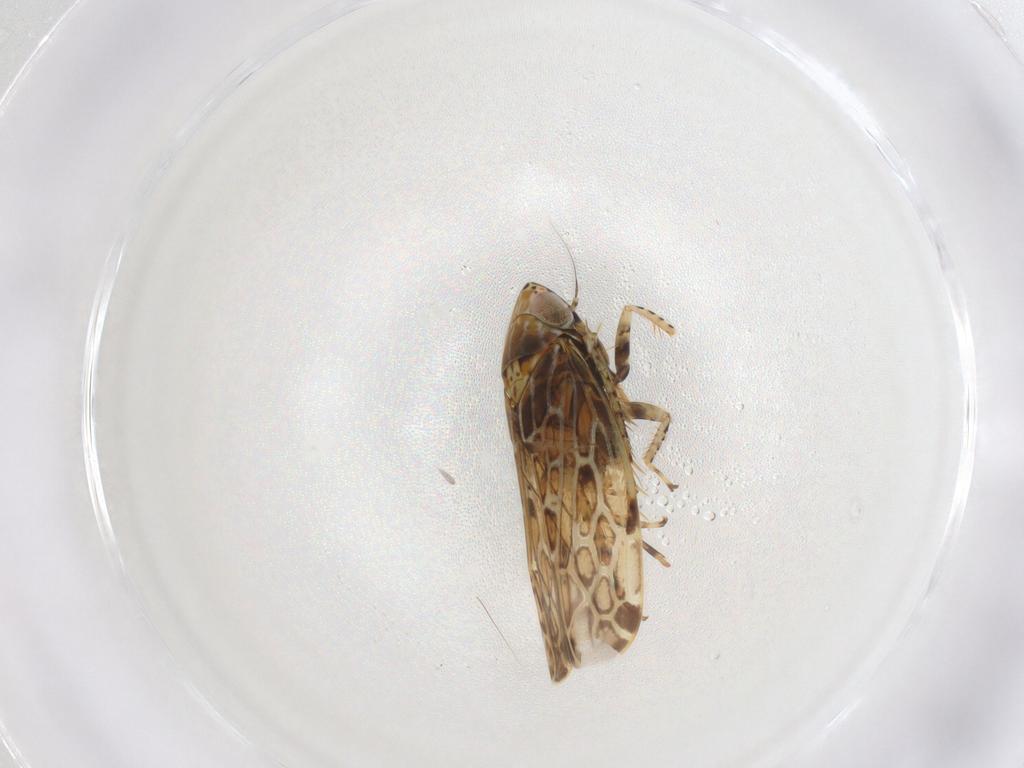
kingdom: Animalia
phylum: Arthropoda
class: Insecta
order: Hemiptera
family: Cicadellidae
